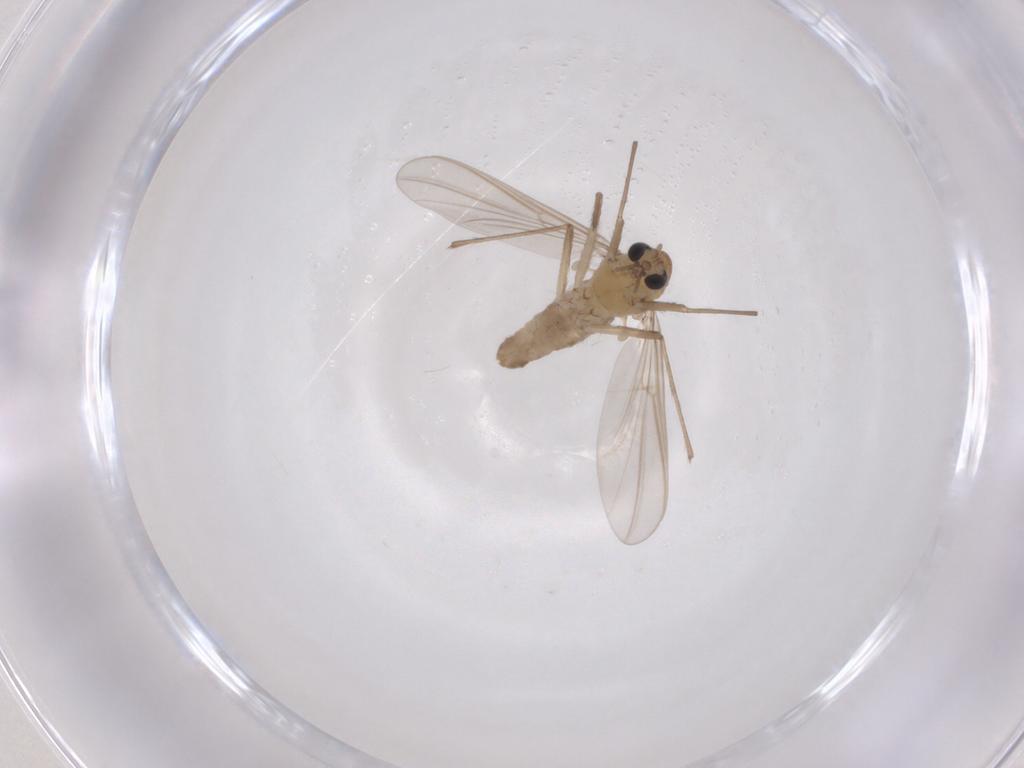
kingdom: Animalia
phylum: Arthropoda
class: Insecta
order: Diptera
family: Chironomidae
